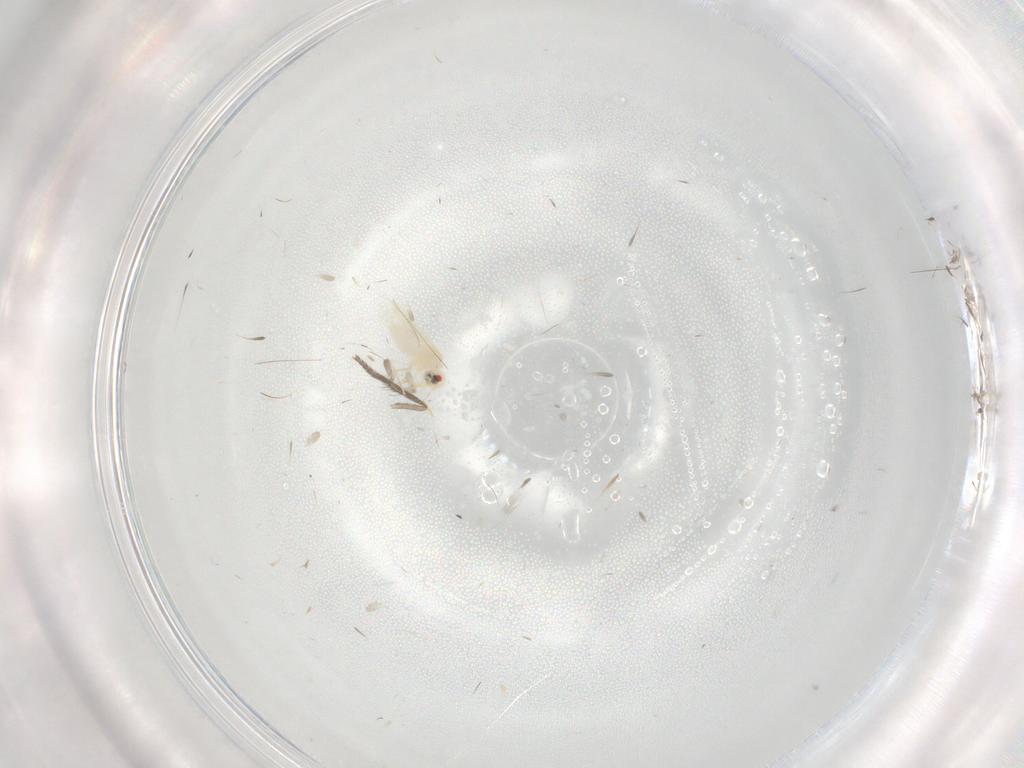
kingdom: Animalia
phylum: Arthropoda
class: Insecta
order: Diptera
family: Psychodidae
